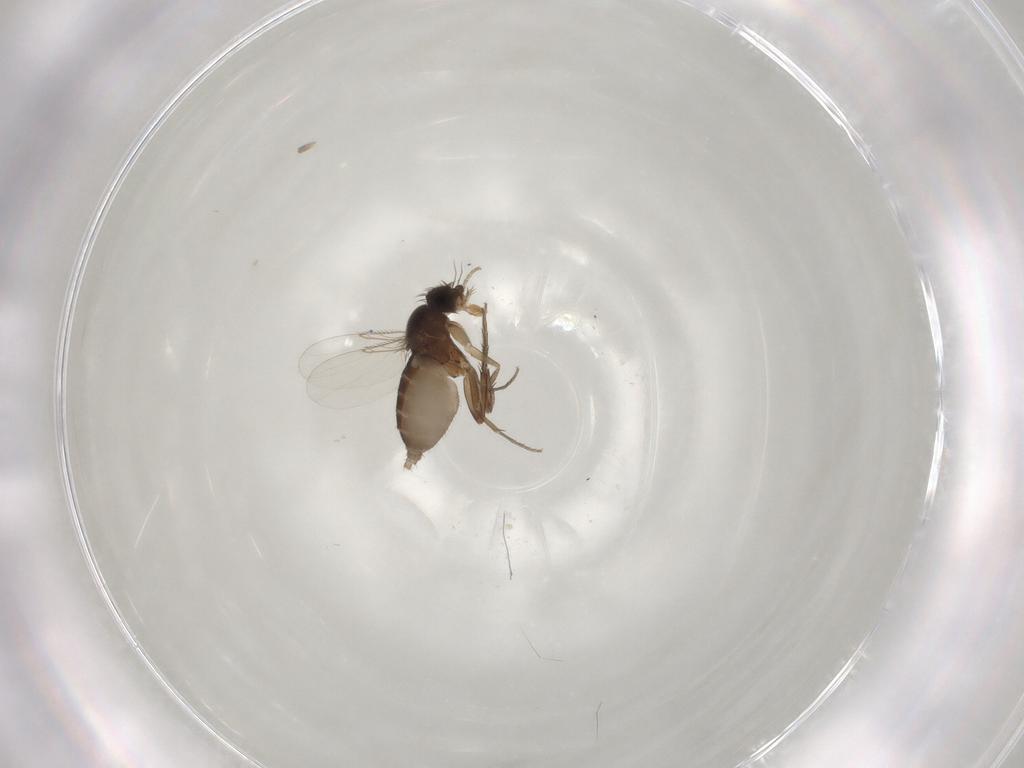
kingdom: Animalia
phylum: Arthropoda
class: Insecta
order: Diptera
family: Phoridae
